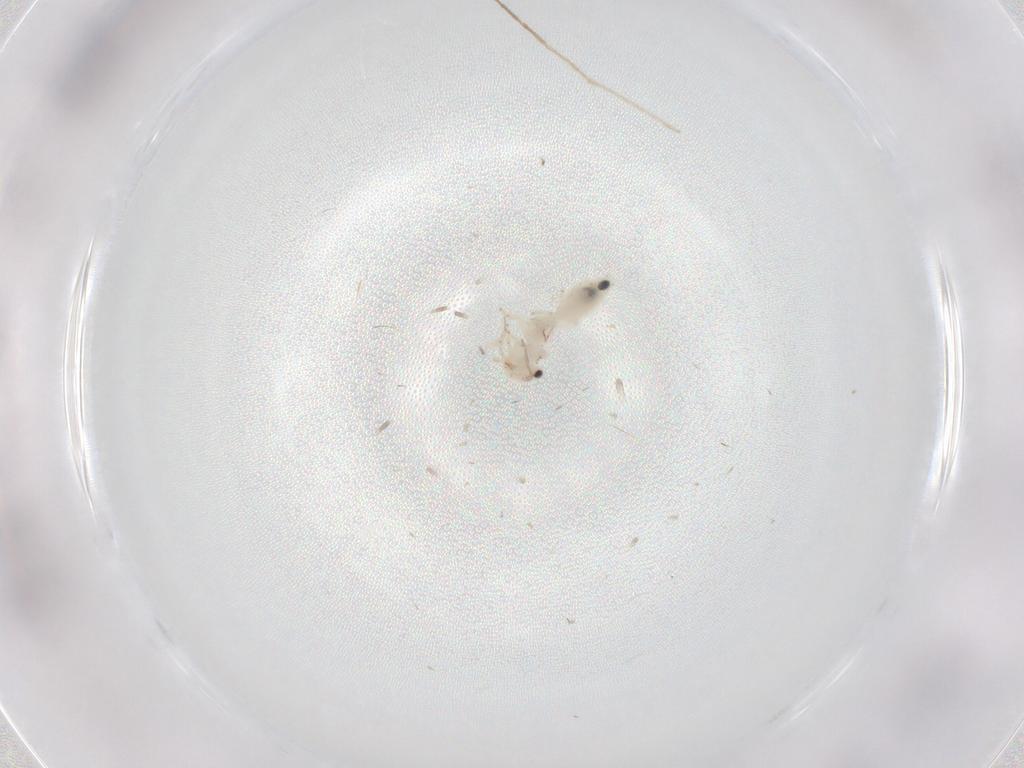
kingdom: Animalia
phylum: Arthropoda
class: Insecta
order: Psocodea
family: Lepidopsocidae
